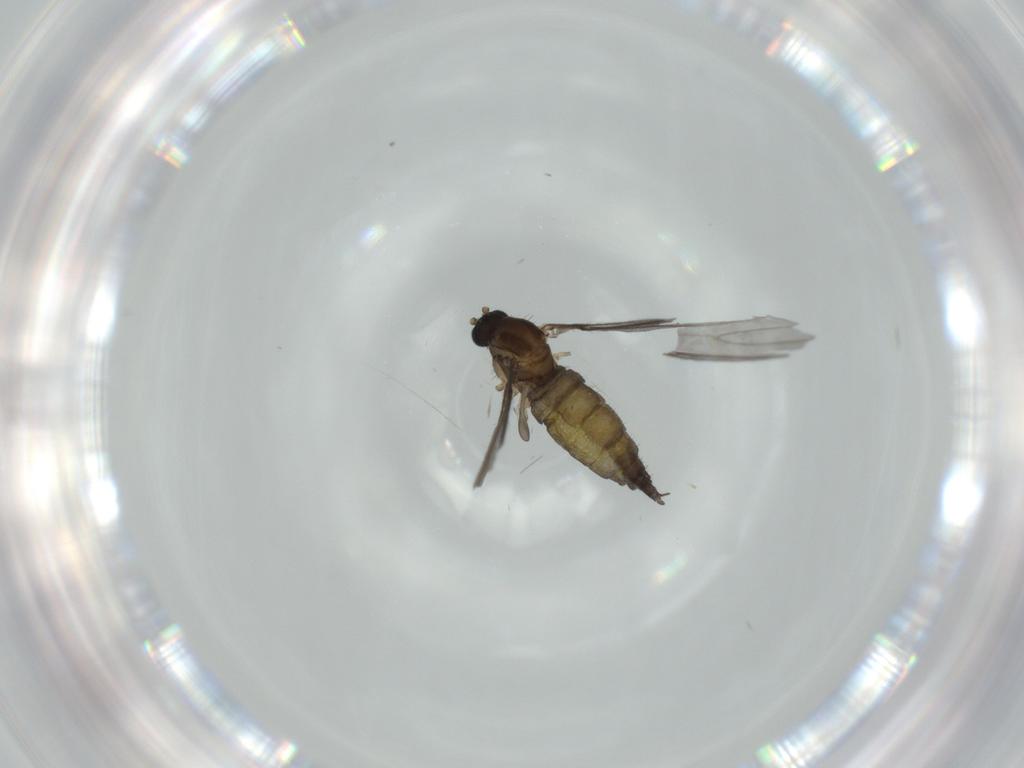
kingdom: Animalia
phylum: Arthropoda
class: Insecta
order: Diptera
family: Sciaridae
